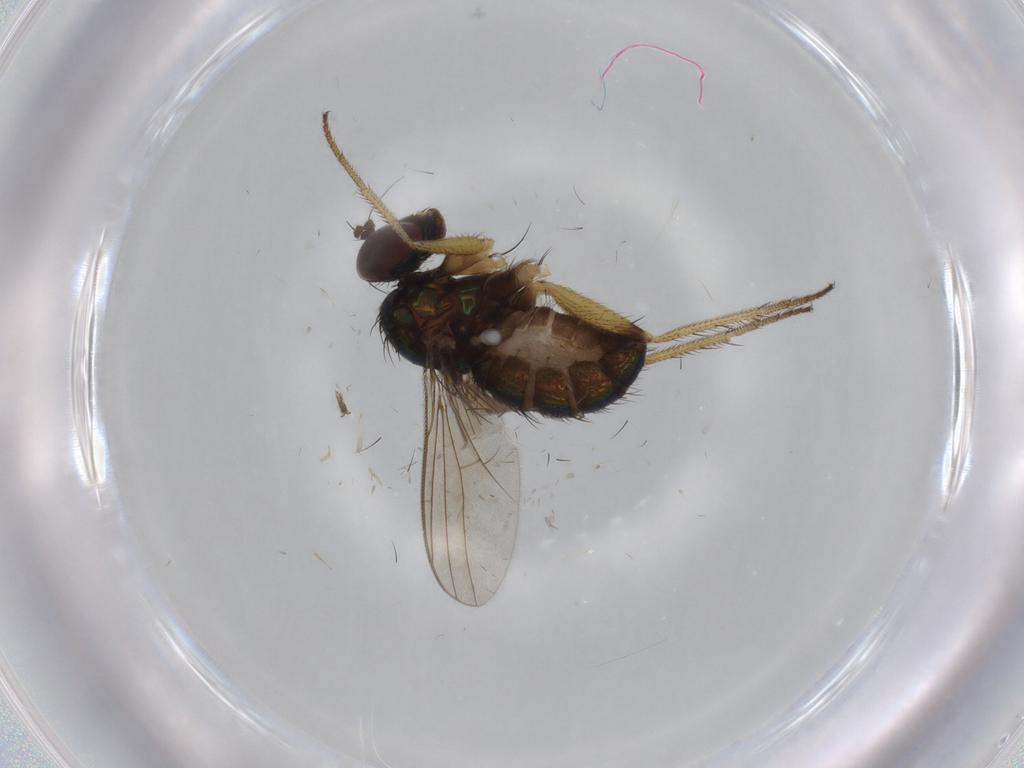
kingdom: Animalia
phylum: Arthropoda
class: Insecta
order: Diptera
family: Dolichopodidae
